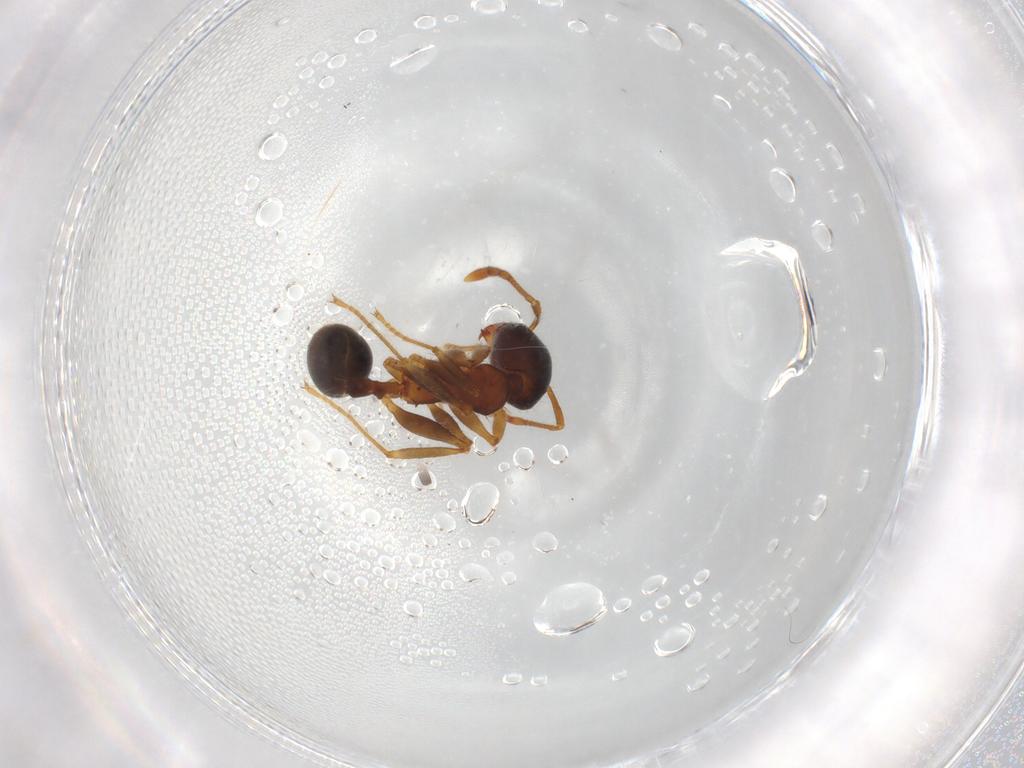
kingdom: Animalia
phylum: Arthropoda
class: Insecta
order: Hymenoptera
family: Formicidae
